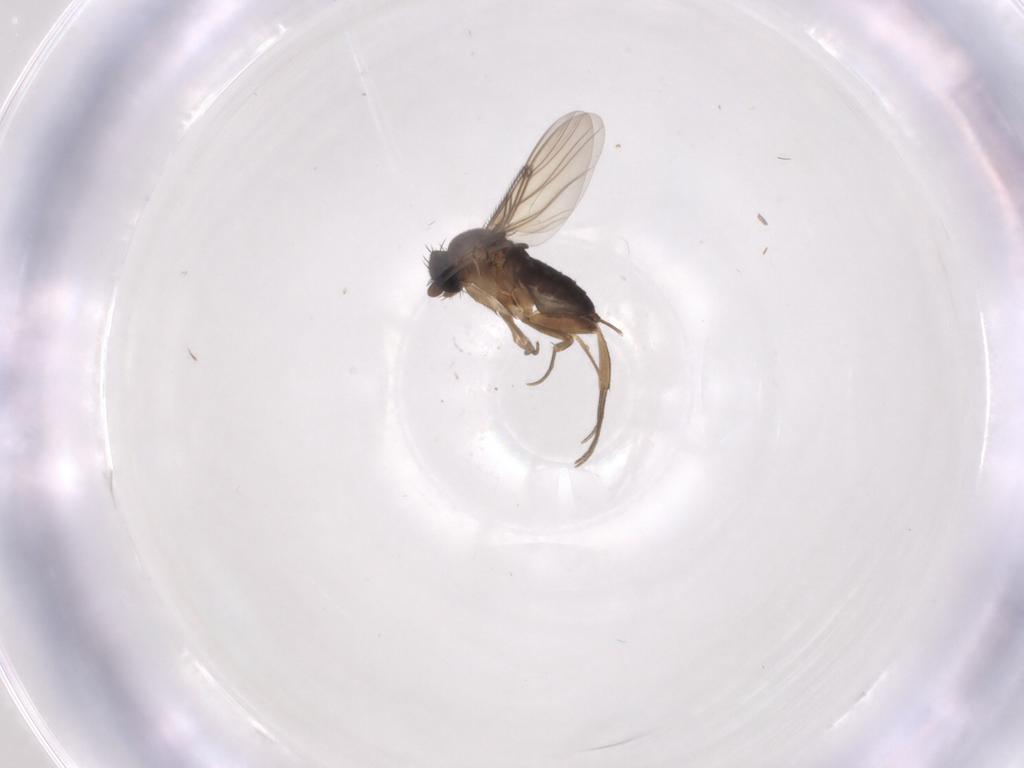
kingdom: Animalia
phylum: Arthropoda
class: Insecta
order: Diptera
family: Phoridae
